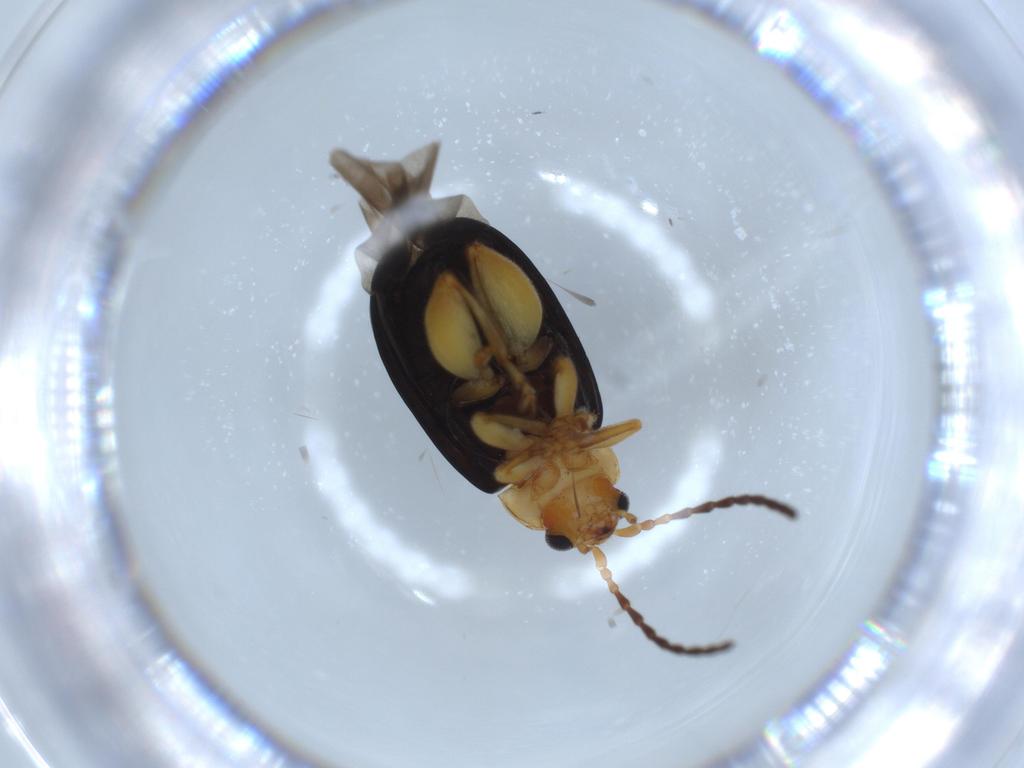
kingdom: Animalia
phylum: Arthropoda
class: Insecta
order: Coleoptera
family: Chrysomelidae
